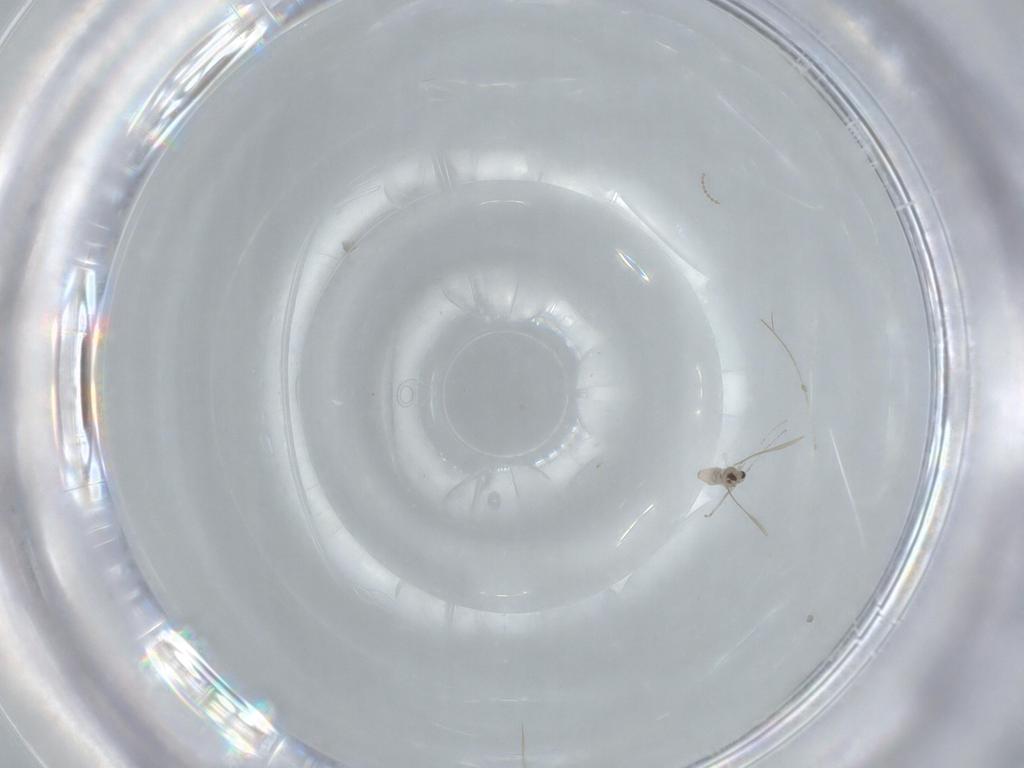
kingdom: Animalia
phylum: Arthropoda
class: Insecta
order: Diptera
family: Cecidomyiidae
